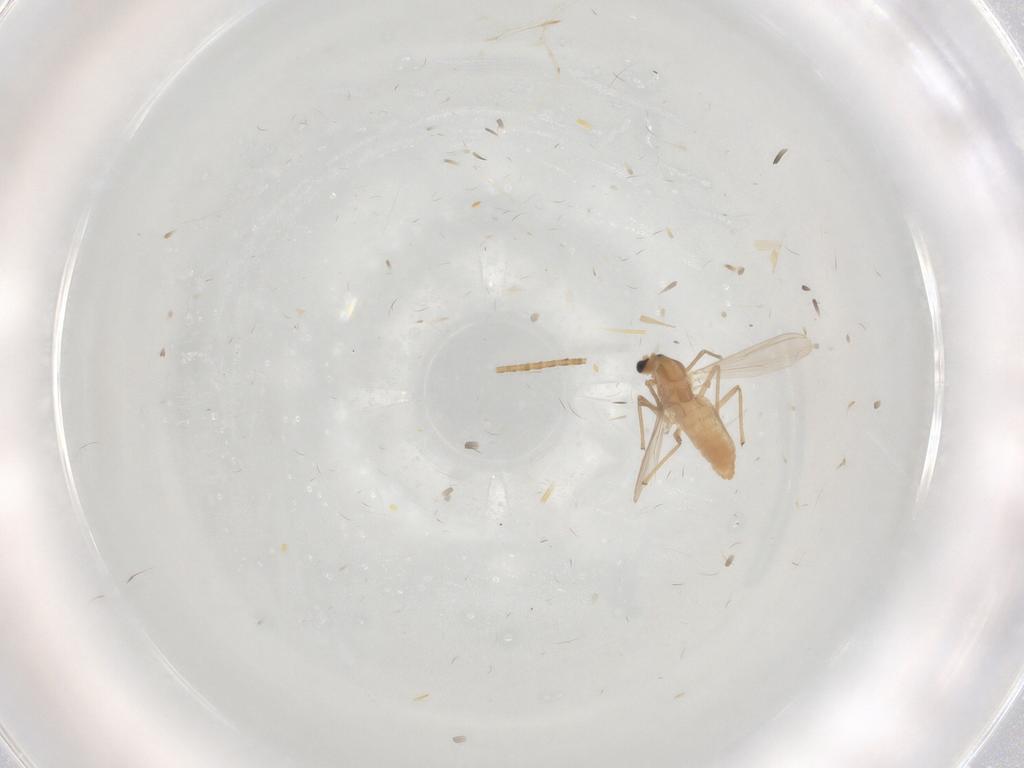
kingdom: Animalia
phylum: Arthropoda
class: Insecta
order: Diptera
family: Chironomidae
